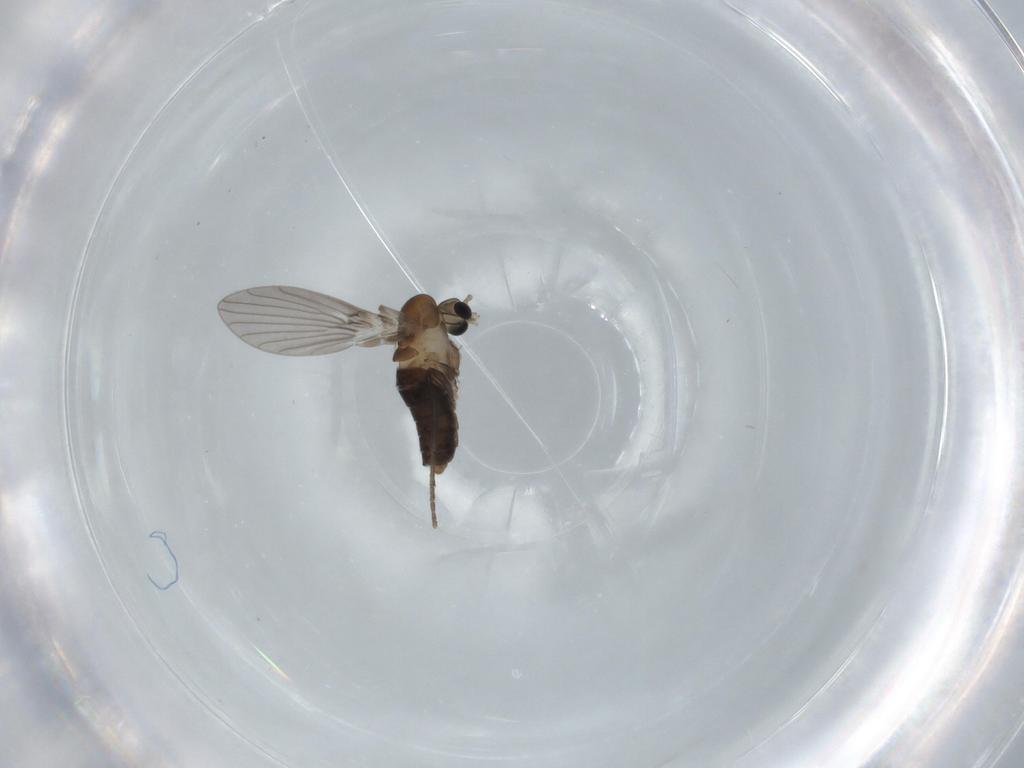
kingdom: Animalia
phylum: Arthropoda
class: Insecta
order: Diptera
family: Psychodidae
